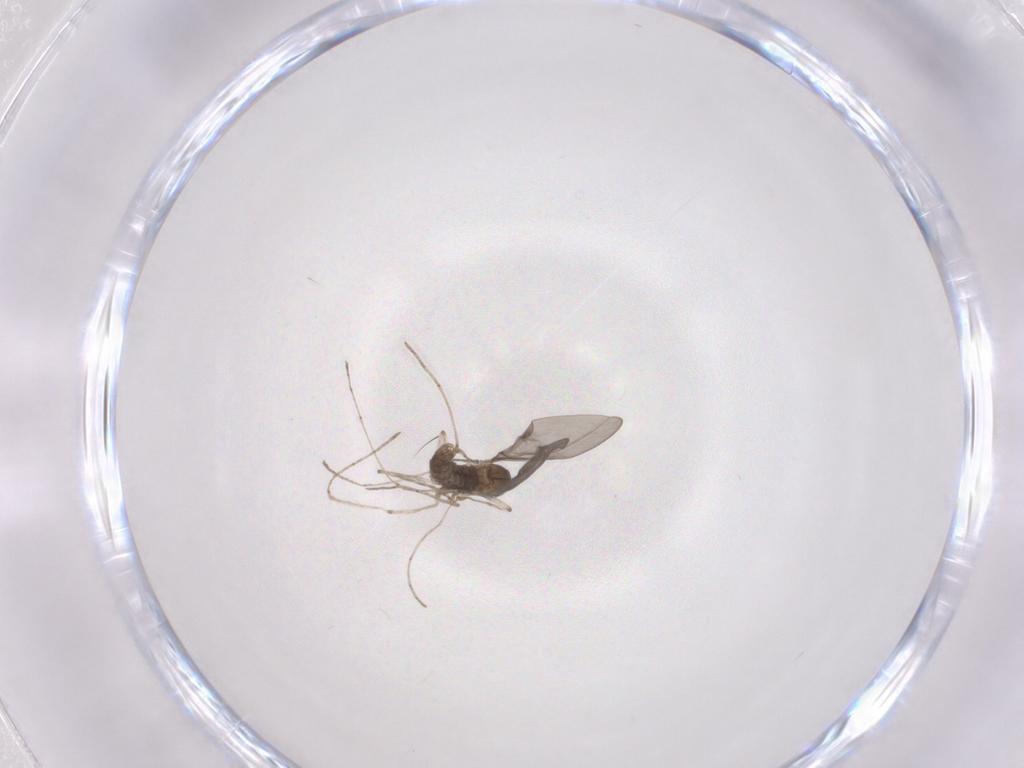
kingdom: Animalia
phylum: Arthropoda
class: Insecta
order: Diptera
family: Cecidomyiidae
